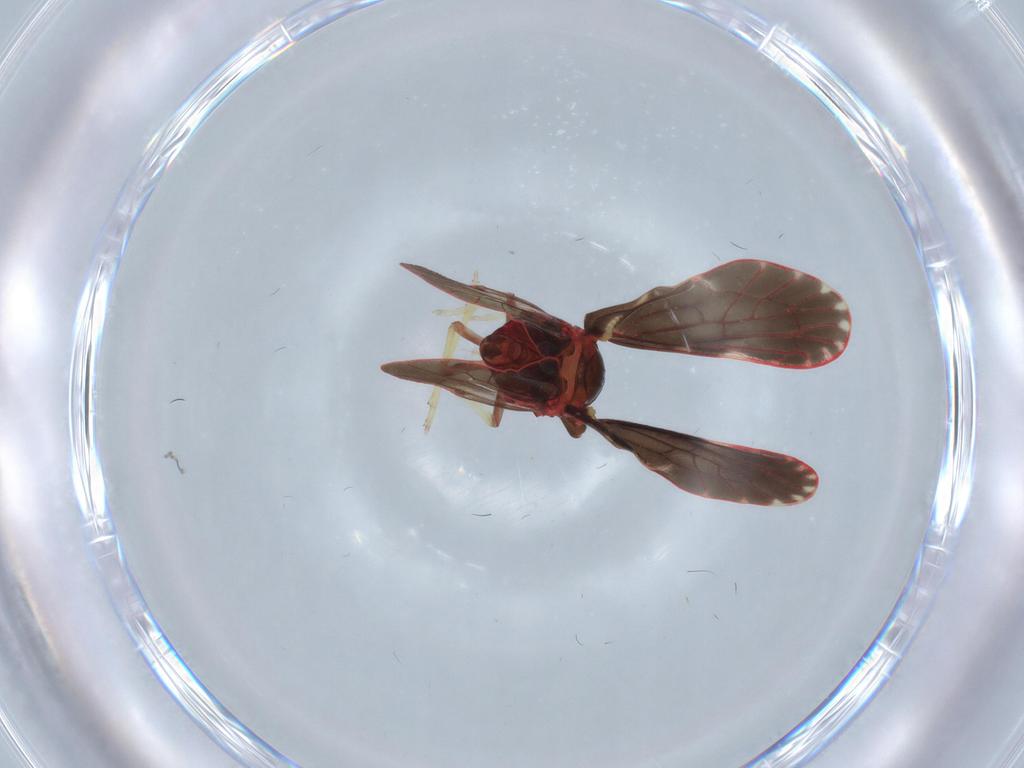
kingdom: Animalia
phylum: Arthropoda
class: Insecta
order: Hemiptera
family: Derbidae
